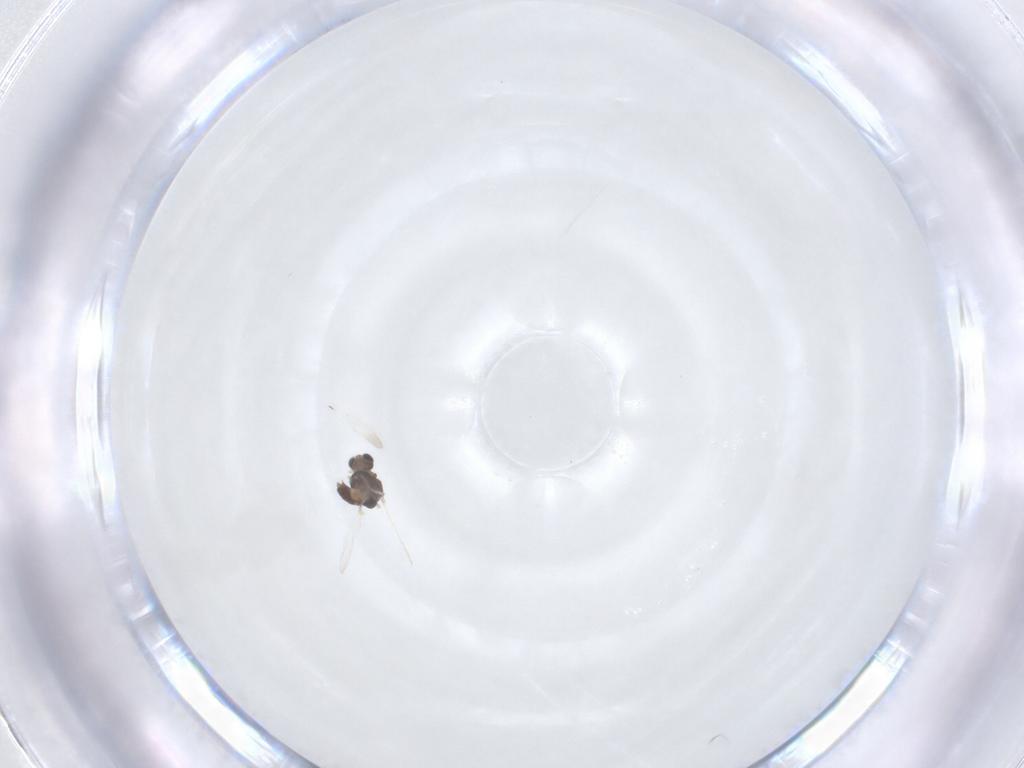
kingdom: Animalia
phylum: Arthropoda
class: Insecta
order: Diptera
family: Chironomidae
